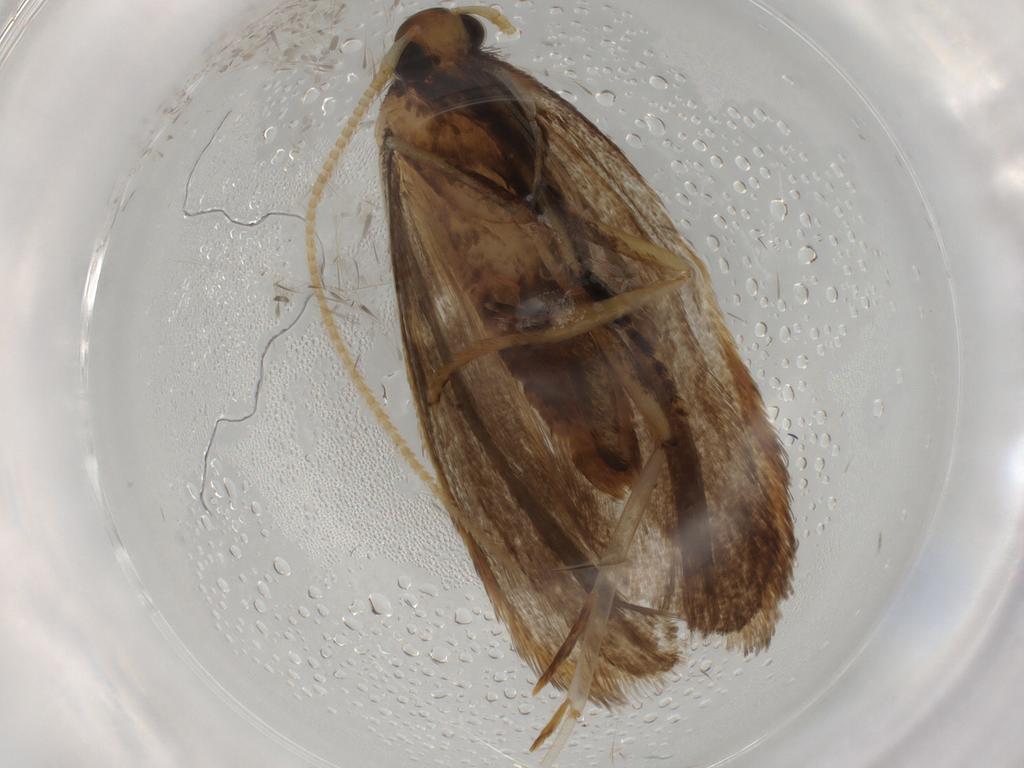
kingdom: Animalia
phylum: Arthropoda
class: Insecta
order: Lepidoptera
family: Lecithoceridae
